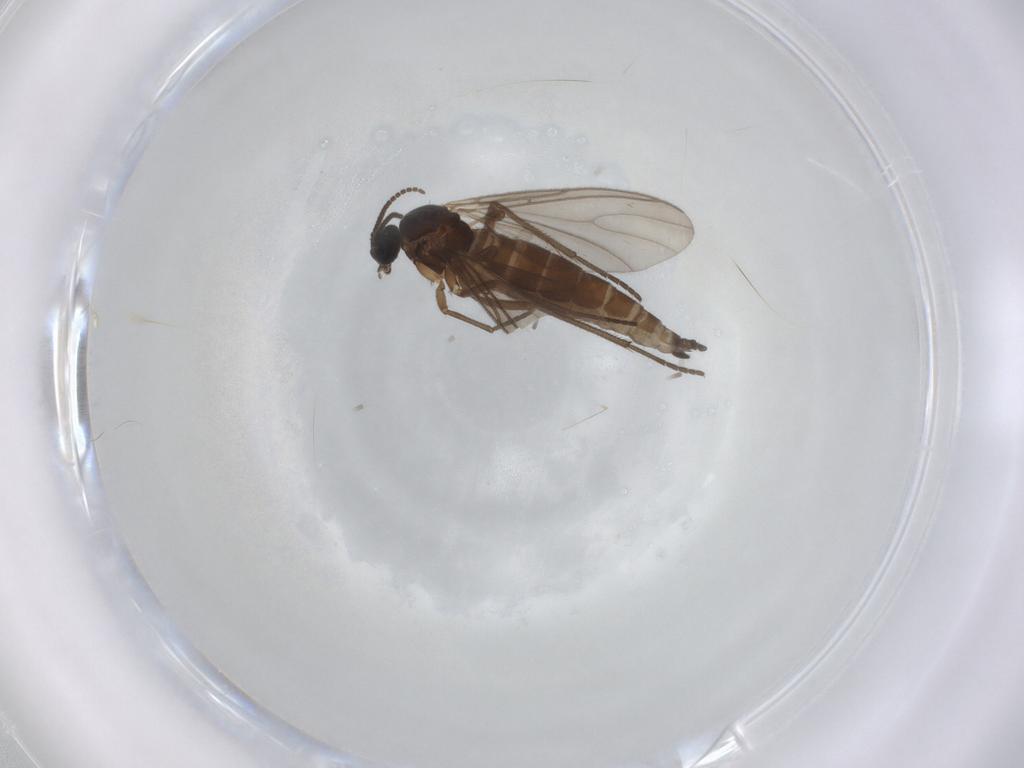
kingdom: Animalia
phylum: Arthropoda
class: Insecta
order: Diptera
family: Sciaridae
